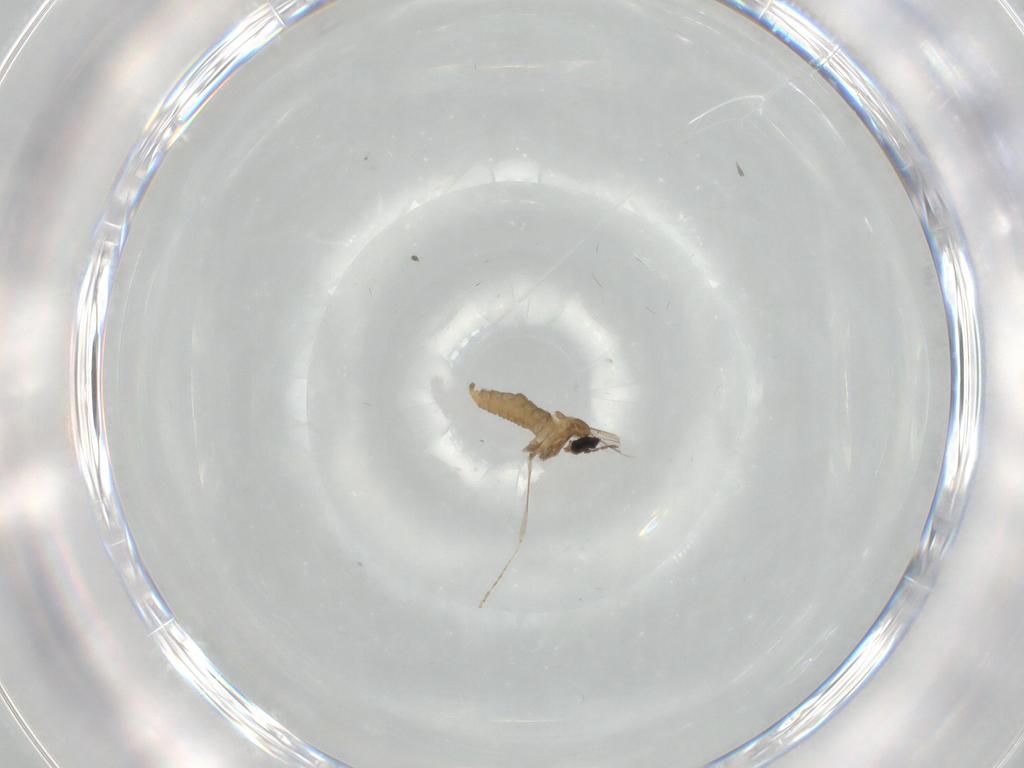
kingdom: Animalia
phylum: Arthropoda
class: Insecta
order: Diptera
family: Cecidomyiidae
